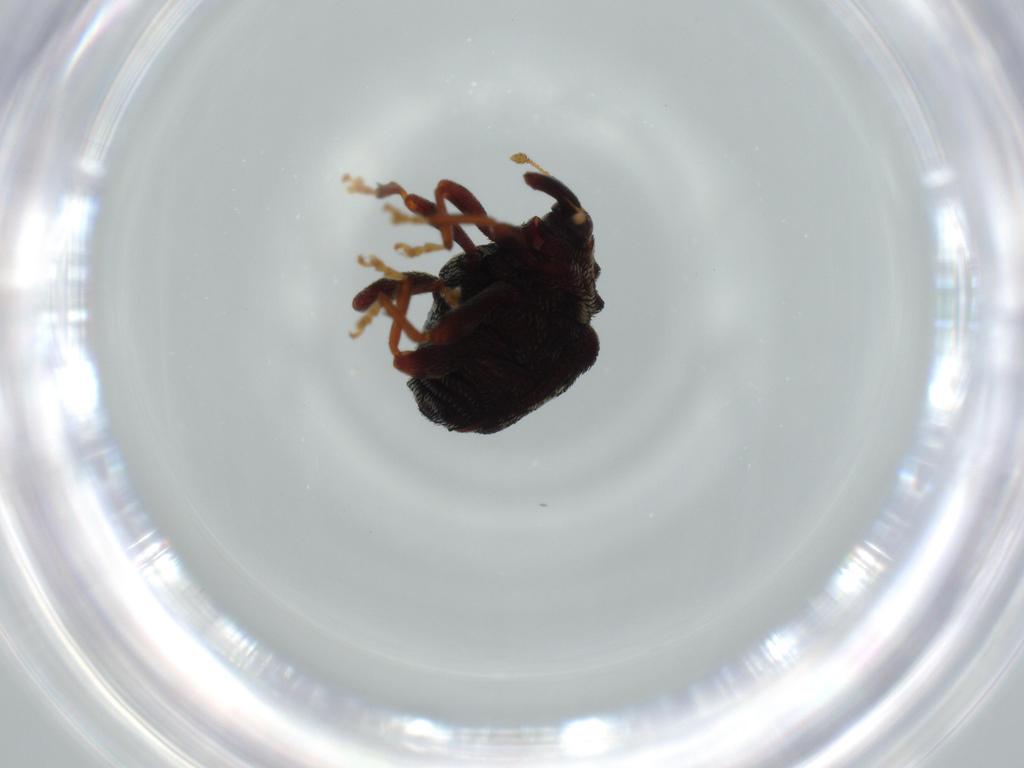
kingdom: Animalia
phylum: Arthropoda
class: Insecta
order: Coleoptera
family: Curculionidae
